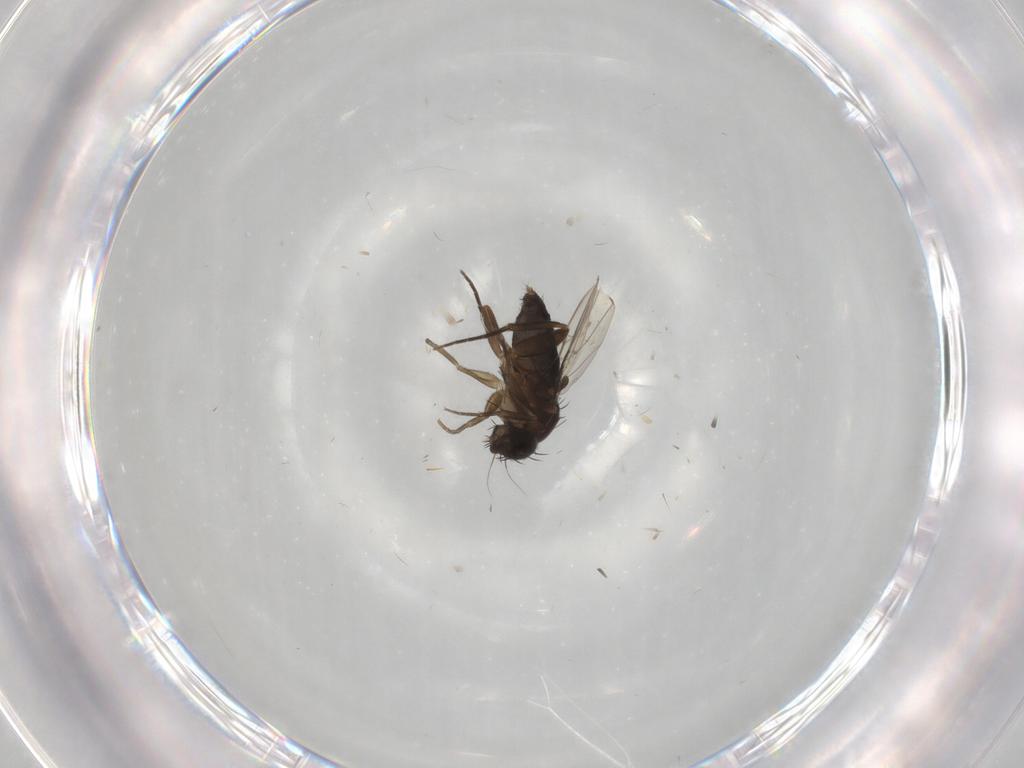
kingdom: Animalia
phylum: Arthropoda
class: Insecta
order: Diptera
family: Phoridae
